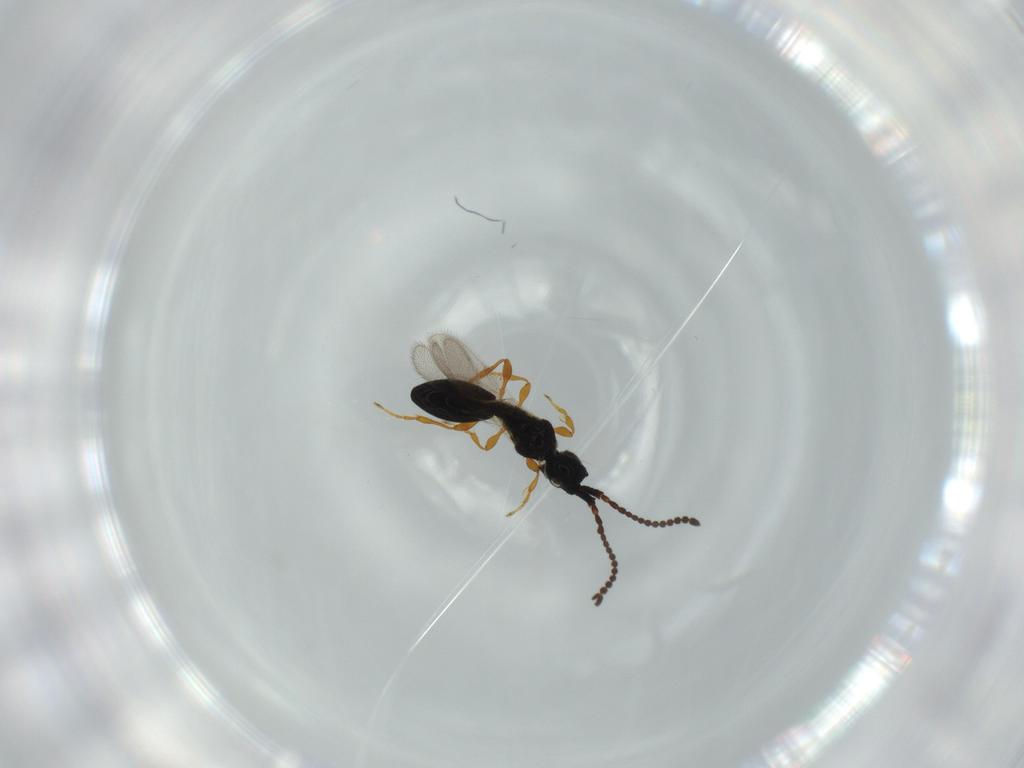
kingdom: Animalia
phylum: Arthropoda
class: Insecta
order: Hymenoptera
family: Diapriidae
